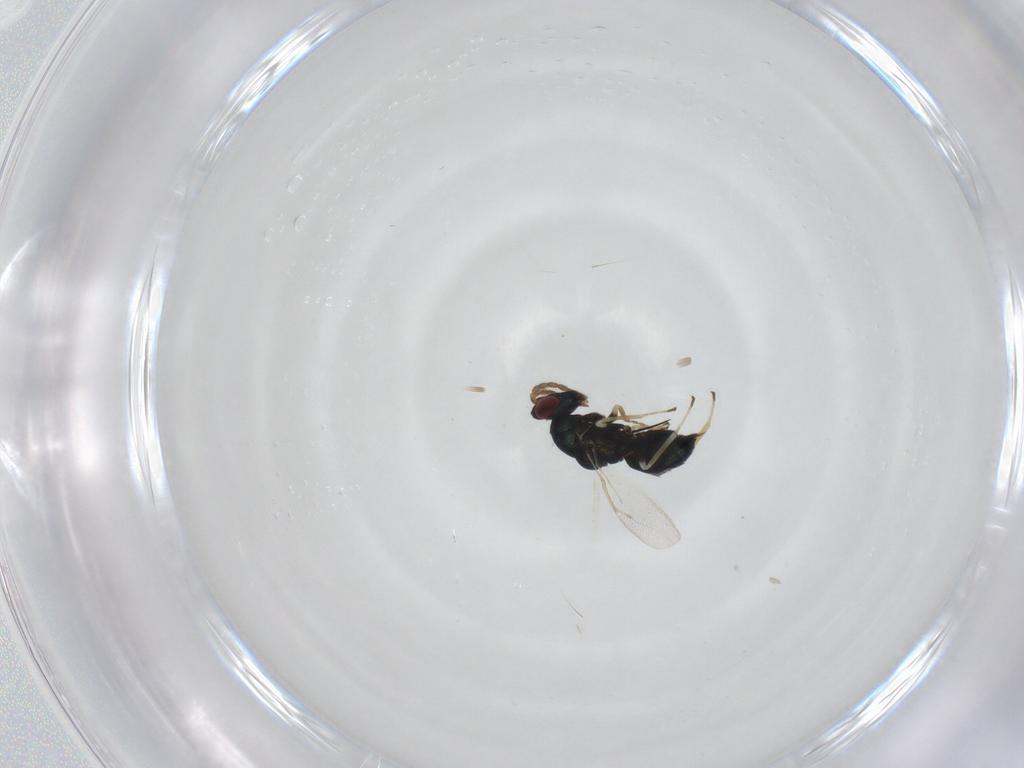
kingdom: Animalia
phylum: Arthropoda
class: Insecta
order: Hymenoptera
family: Eulophidae
